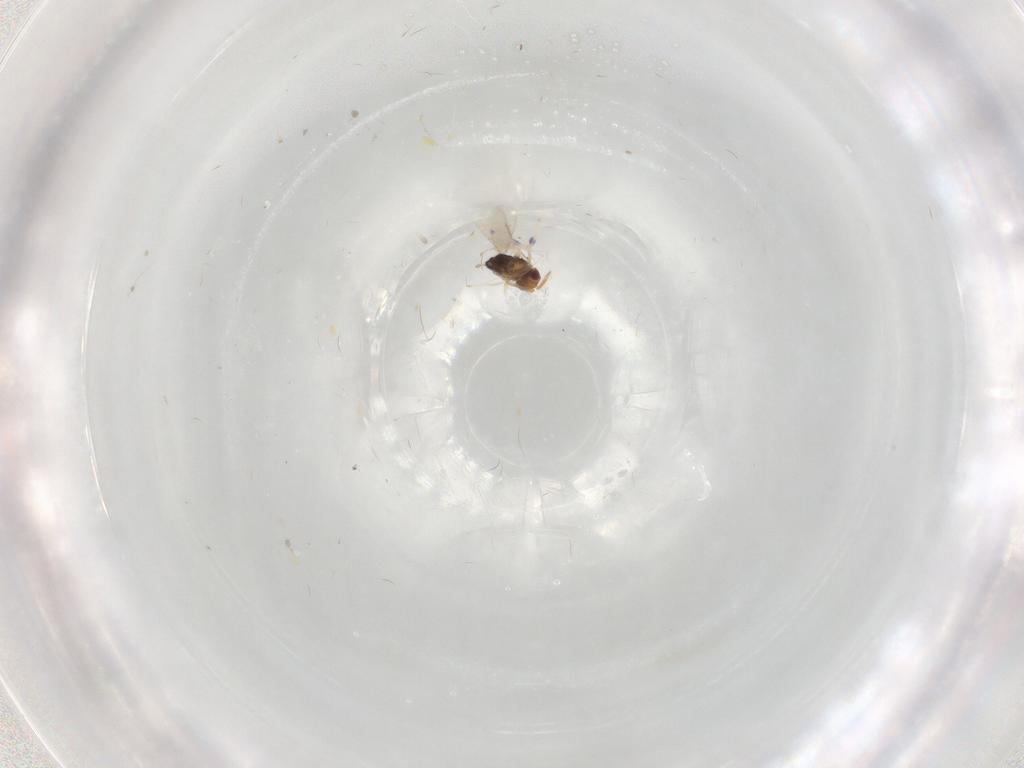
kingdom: Animalia
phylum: Arthropoda
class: Insecta
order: Hymenoptera
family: Aphelinidae
